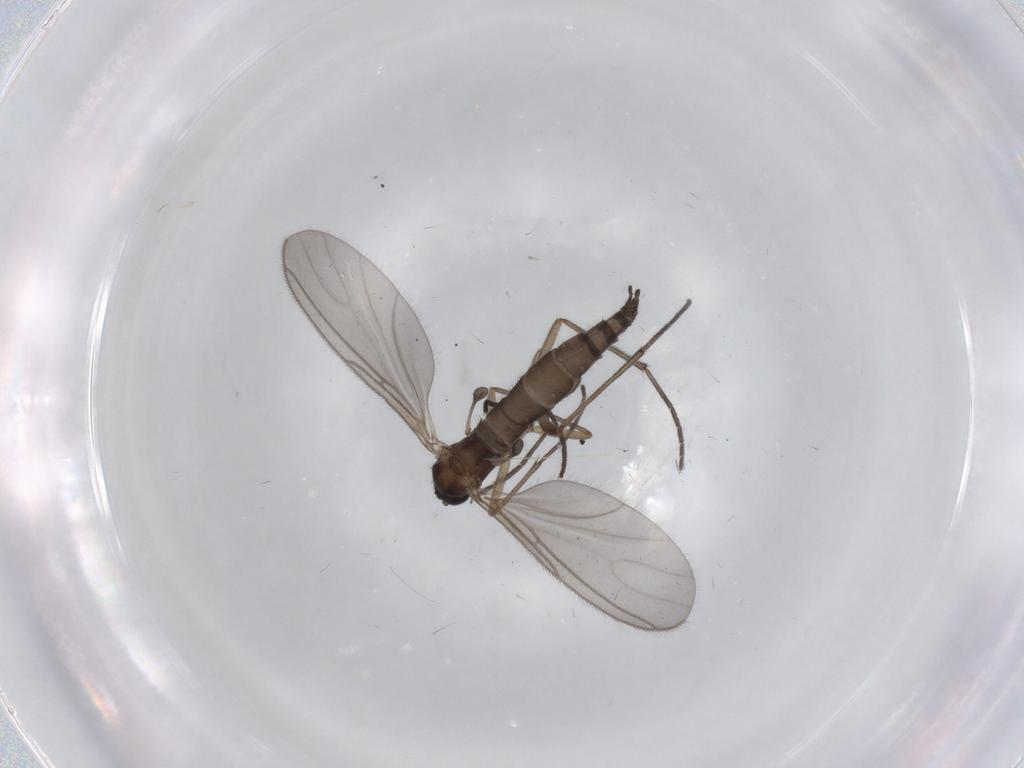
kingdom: Animalia
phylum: Arthropoda
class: Insecta
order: Diptera
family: Sciaridae
